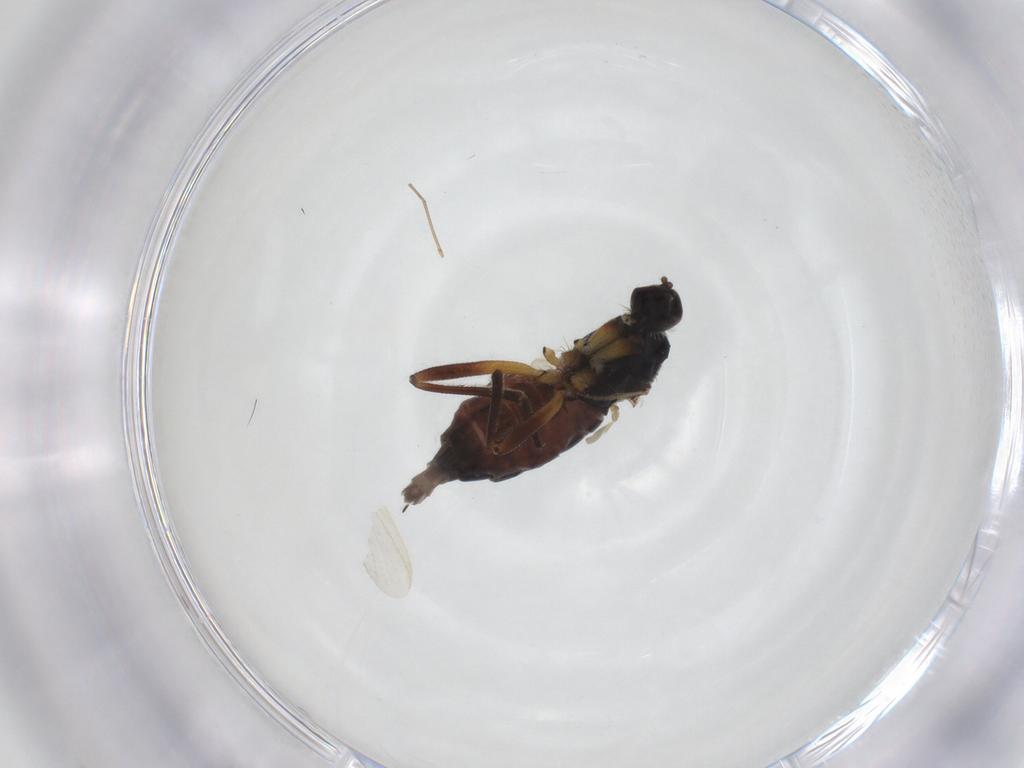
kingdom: Animalia
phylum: Arthropoda
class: Insecta
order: Diptera
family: Hybotidae
